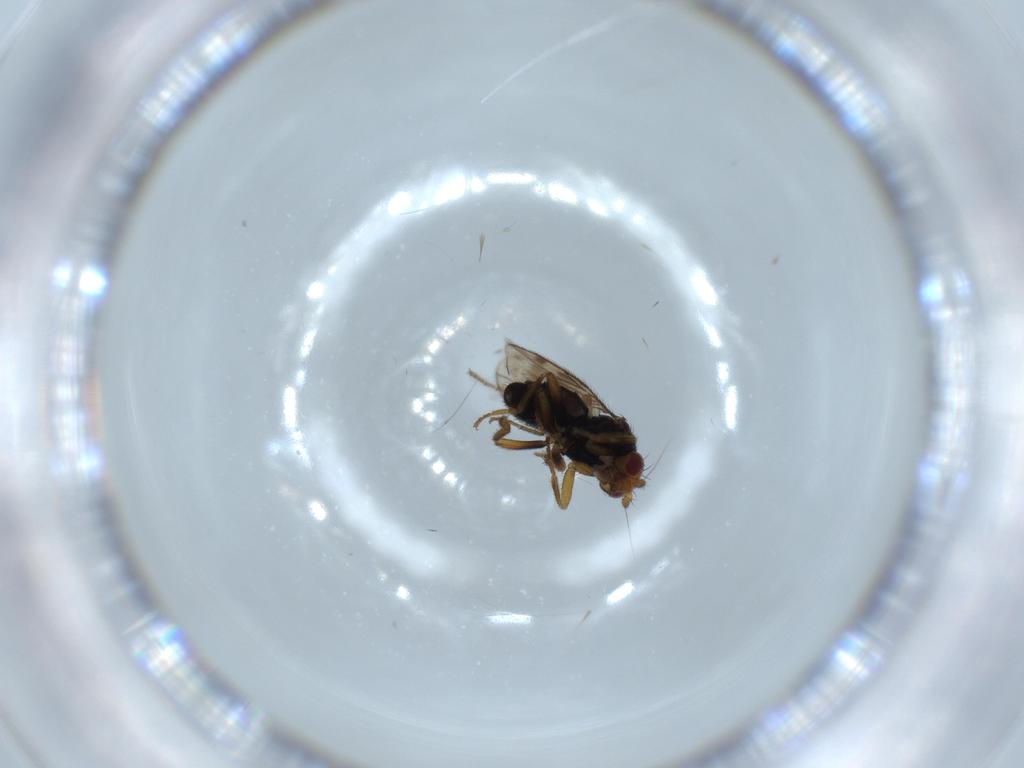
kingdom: Animalia
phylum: Arthropoda
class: Insecta
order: Diptera
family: Sphaeroceridae
